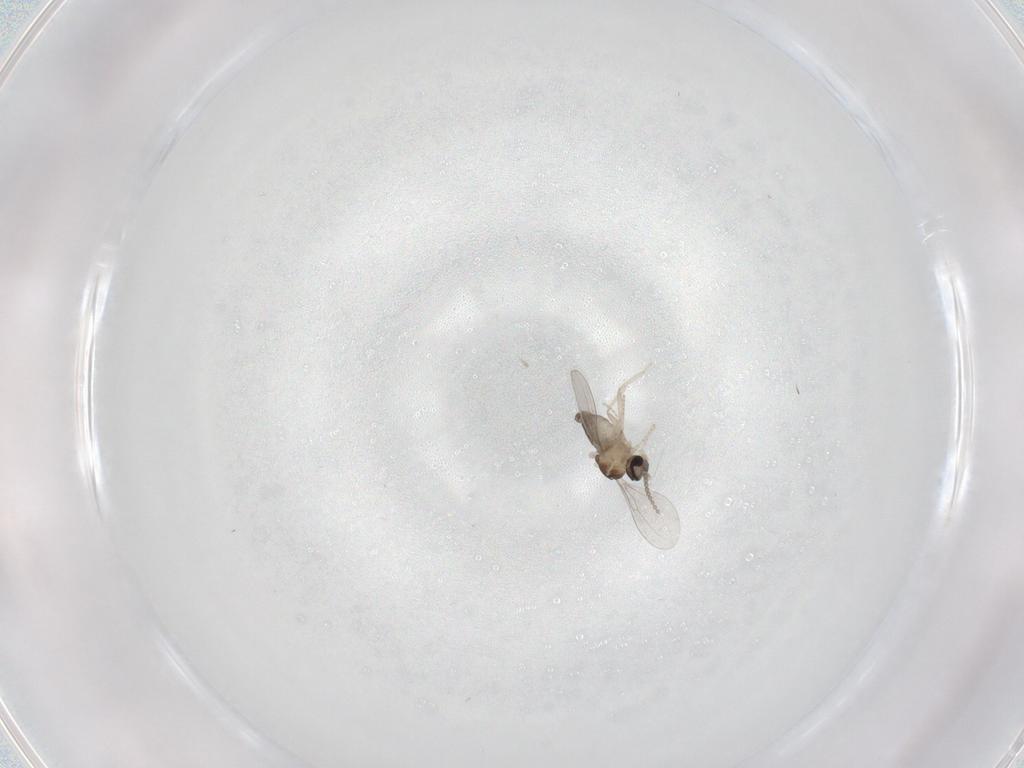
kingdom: Animalia
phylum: Arthropoda
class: Insecta
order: Diptera
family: Cecidomyiidae
